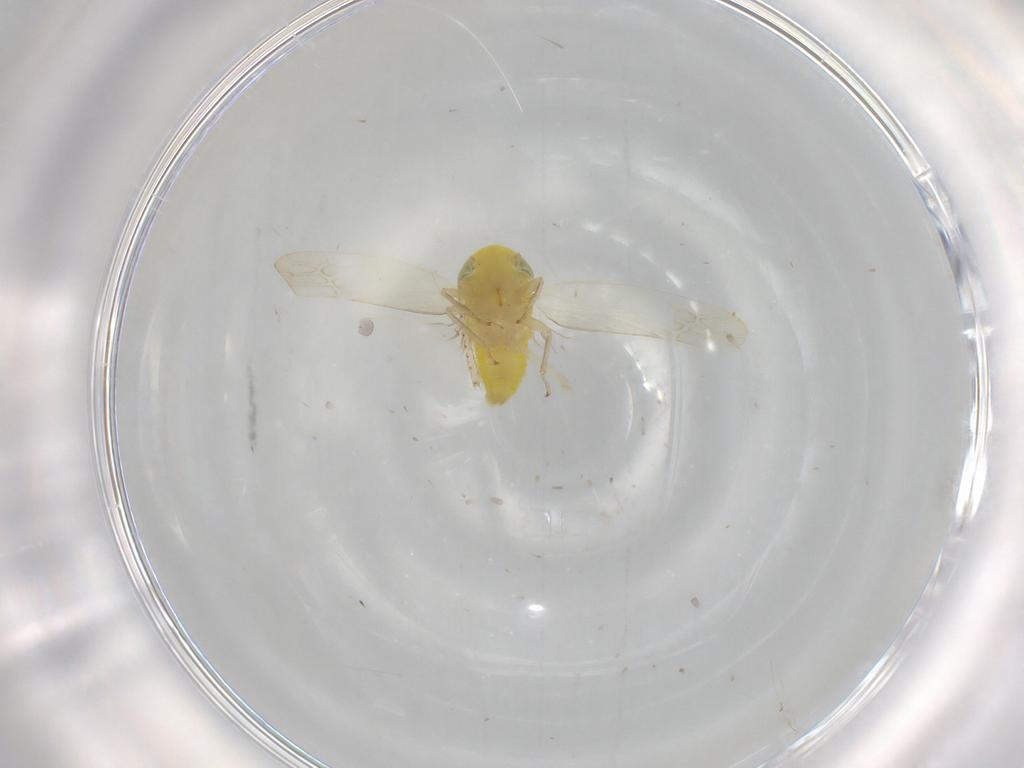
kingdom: Animalia
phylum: Arthropoda
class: Insecta
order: Hemiptera
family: Cicadellidae
